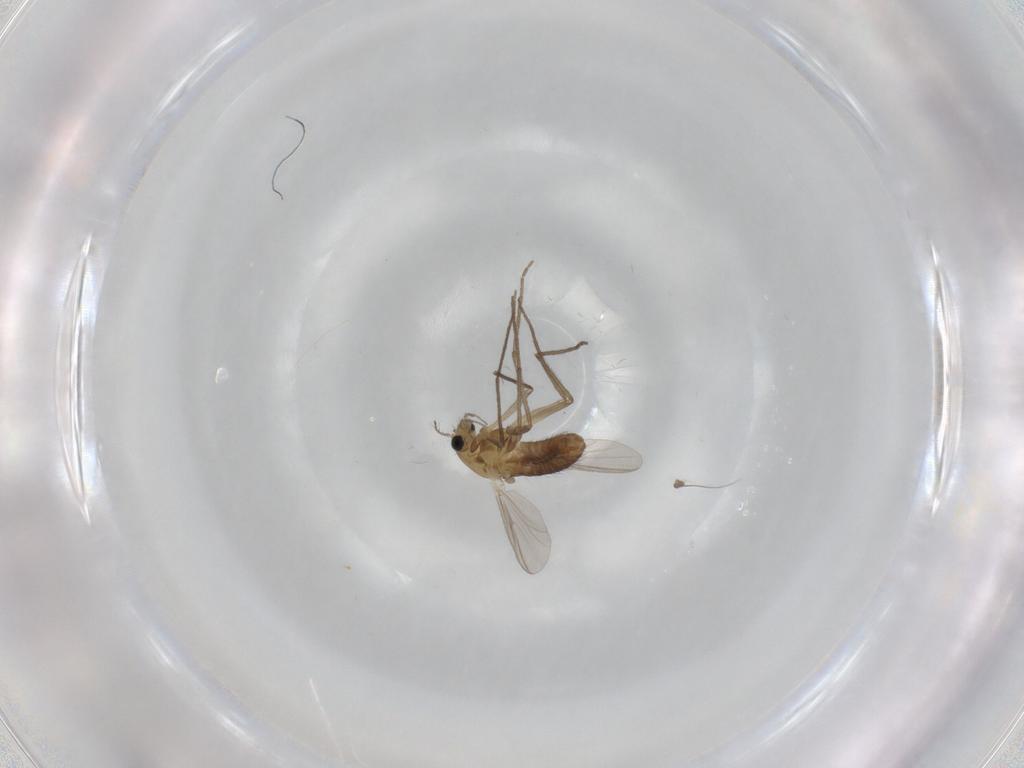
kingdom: Animalia
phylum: Arthropoda
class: Insecta
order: Diptera
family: Chironomidae
